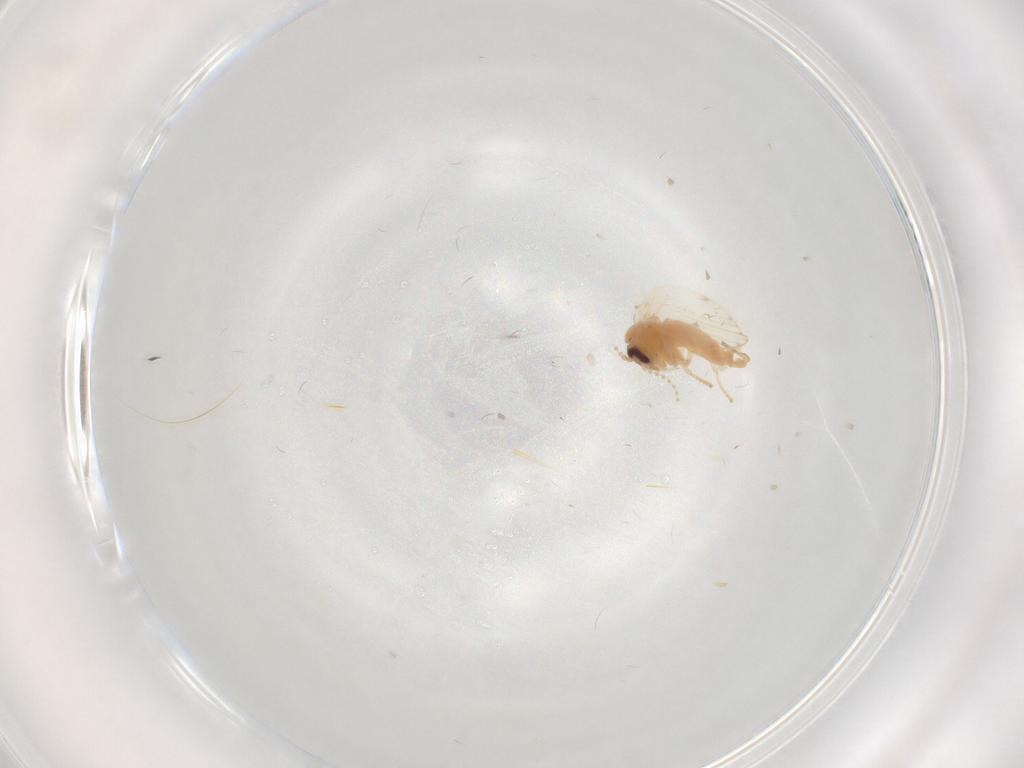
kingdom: Animalia
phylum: Arthropoda
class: Insecta
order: Diptera
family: Psychodidae
